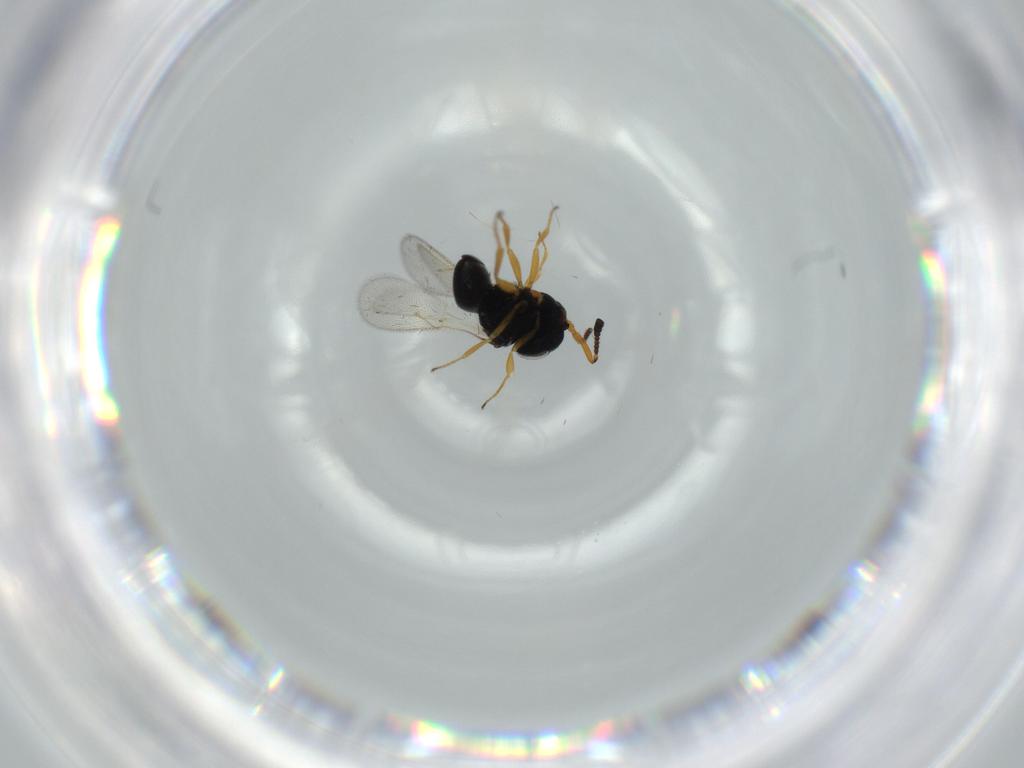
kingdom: Animalia
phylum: Arthropoda
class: Insecta
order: Hymenoptera
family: Scelionidae
